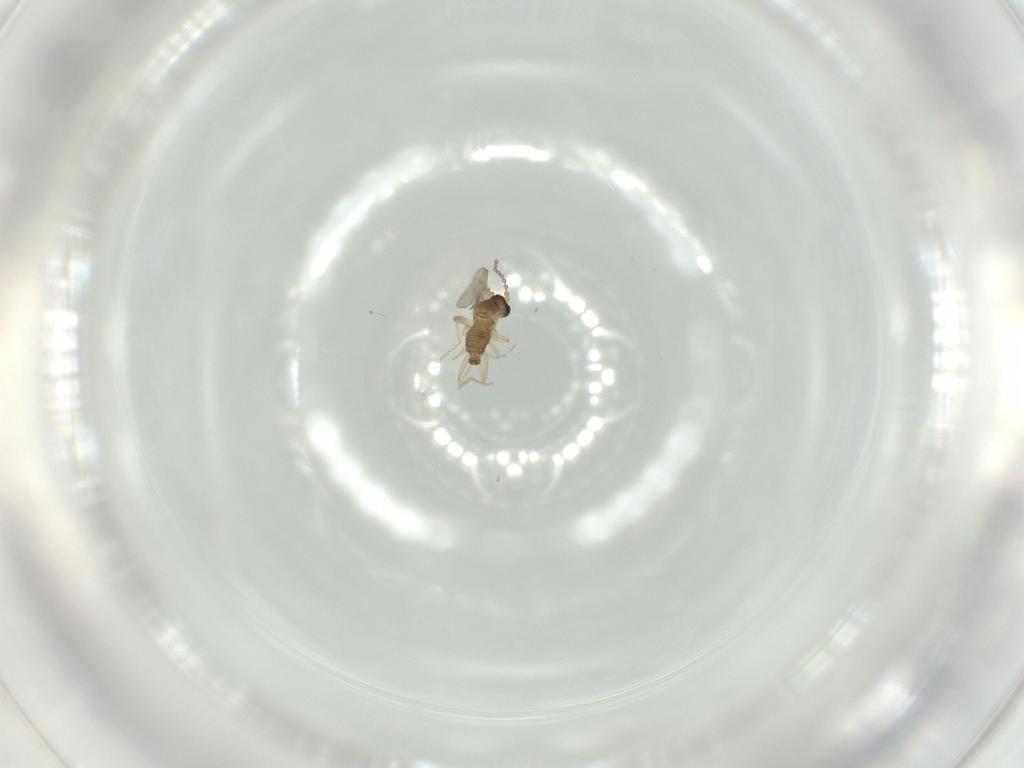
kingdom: Animalia
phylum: Arthropoda
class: Insecta
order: Diptera
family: Cecidomyiidae
